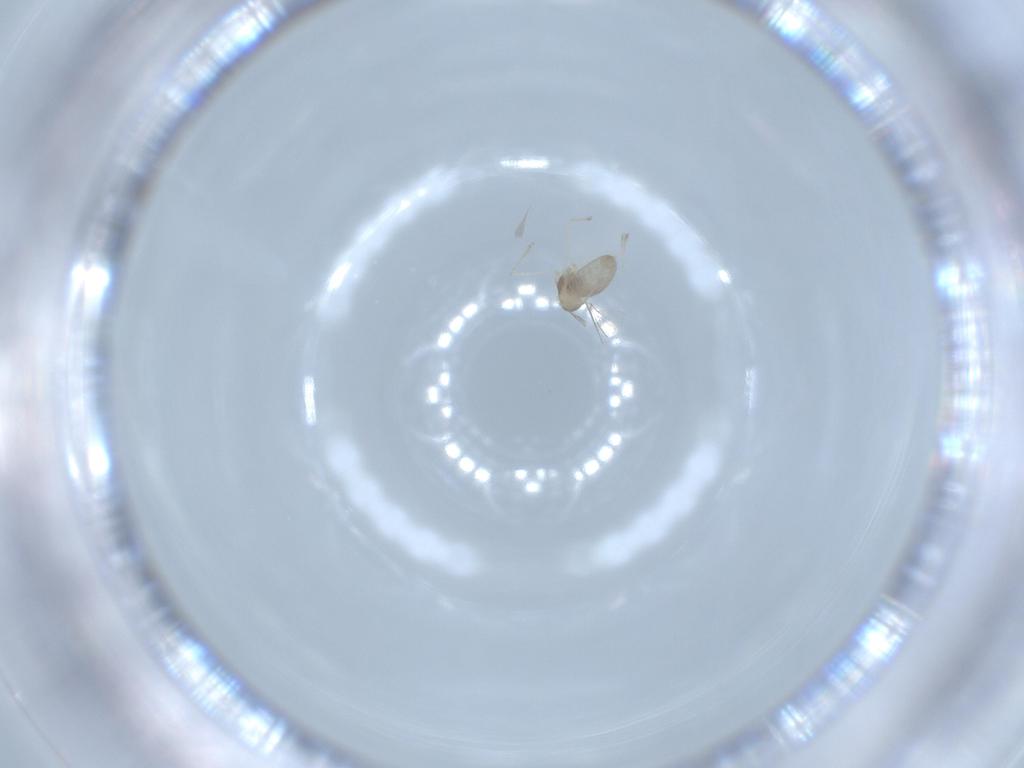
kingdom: Animalia
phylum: Arthropoda
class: Insecta
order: Diptera
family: Cecidomyiidae
